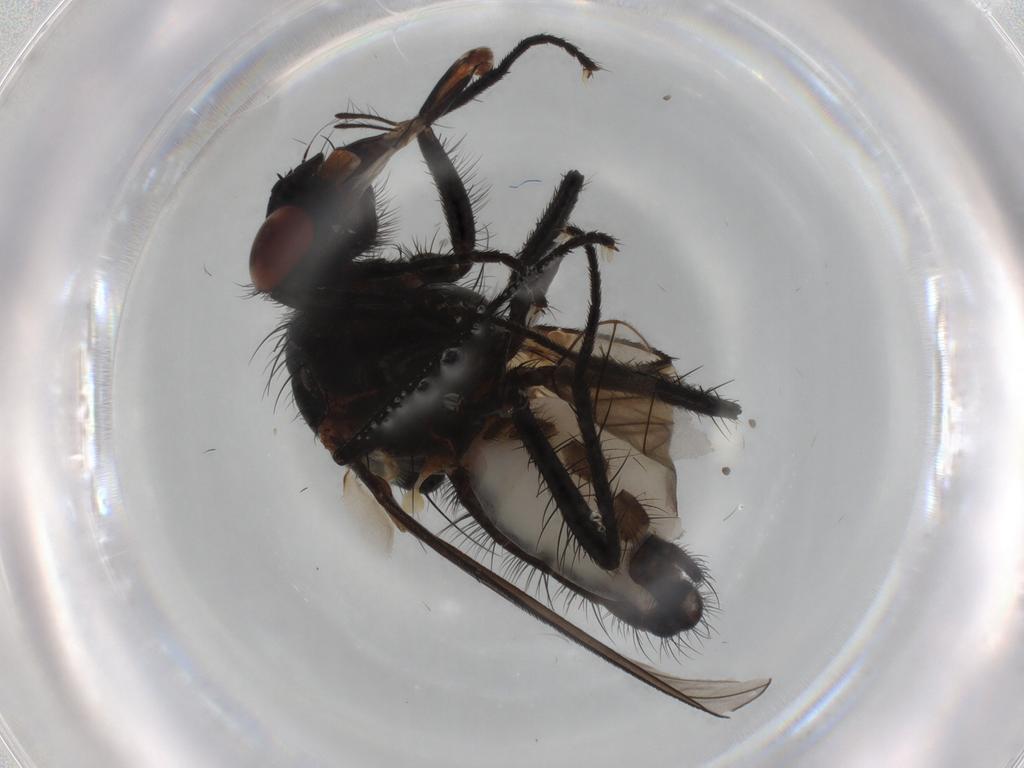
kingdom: Animalia
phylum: Arthropoda
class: Insecta
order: Diptera
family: Anthomyiidae
